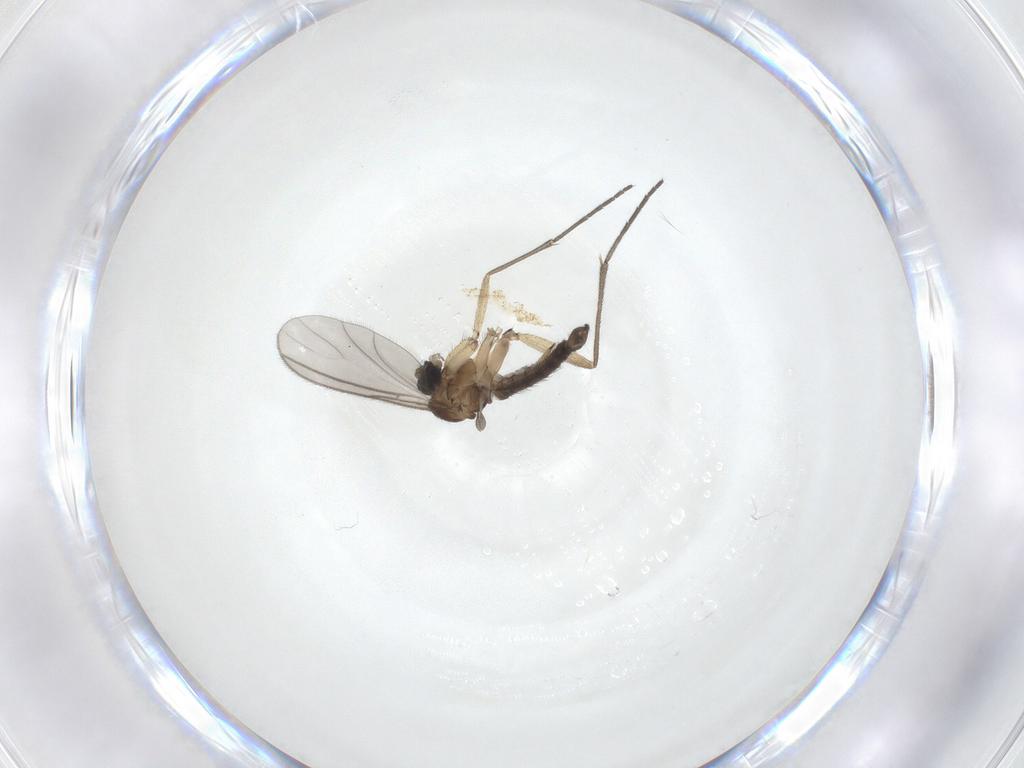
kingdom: Animalia
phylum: Arthropoda
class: Insecta
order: Diptera
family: Sciaridae
